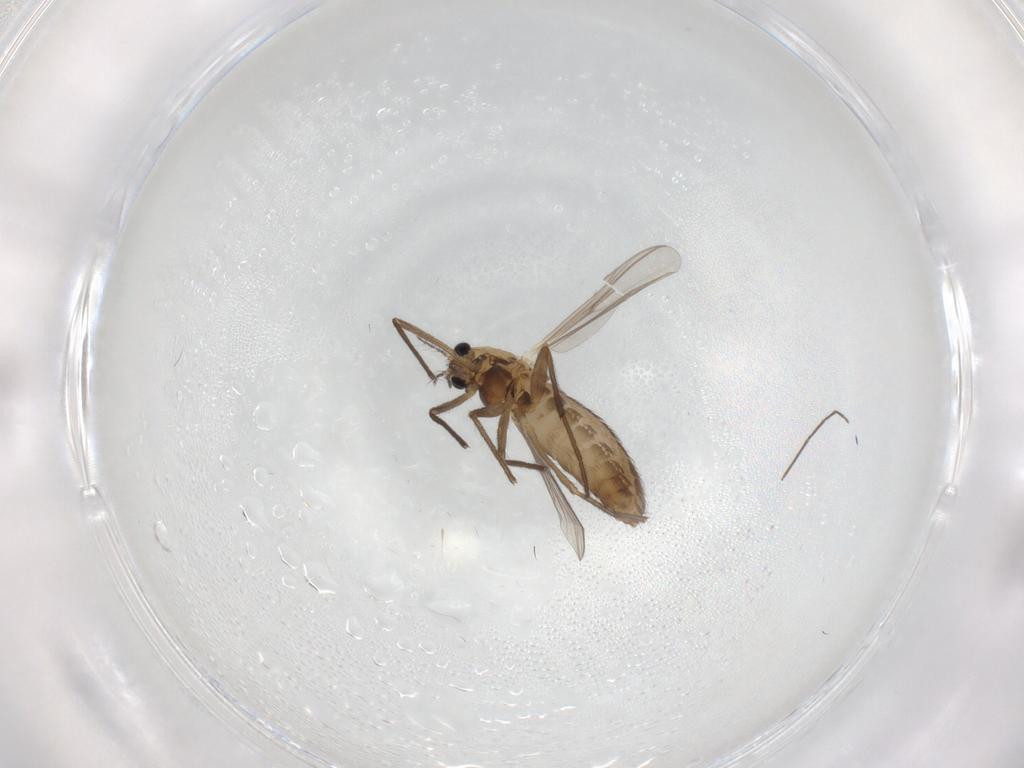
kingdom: Animalia
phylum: Arthropoda
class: Insecta
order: Diptera
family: Chironomidae
